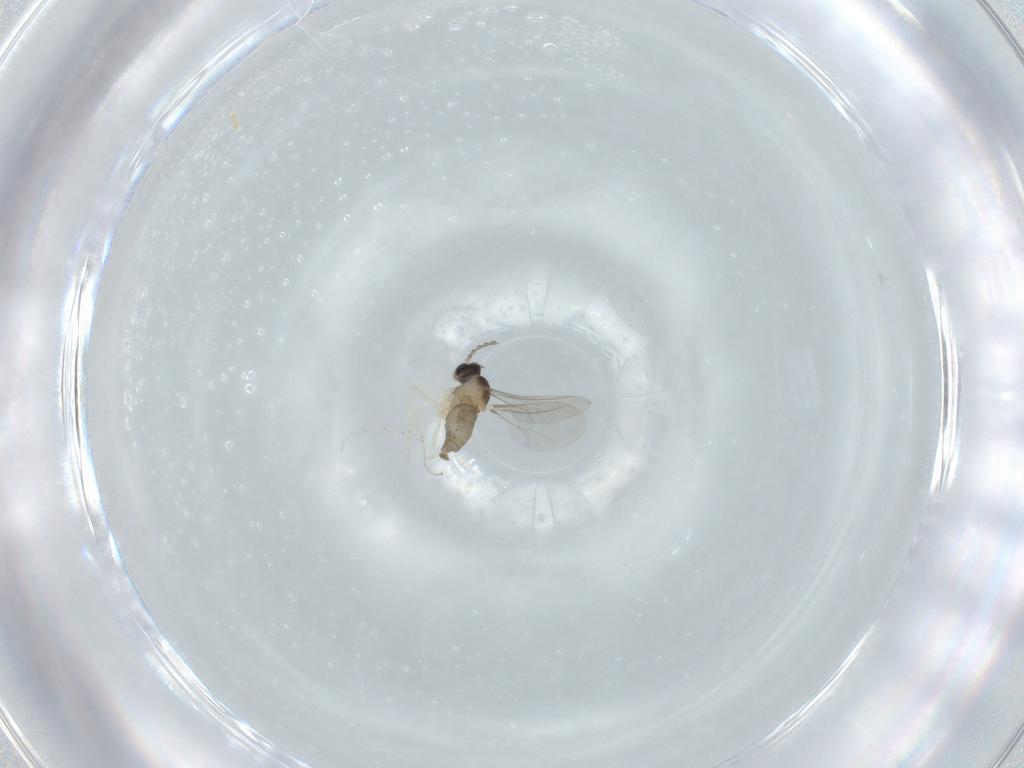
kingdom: Animalia
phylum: Arthropoda
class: Insecta
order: Diptera
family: Cecidomyiidae
